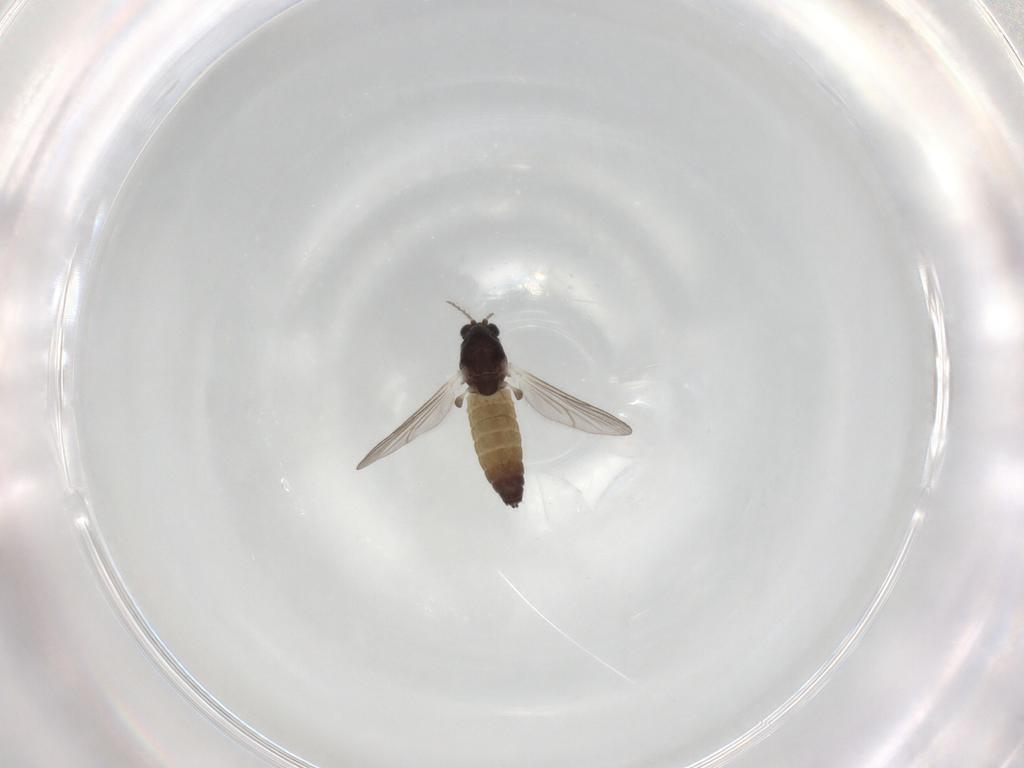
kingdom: Animalia
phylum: Arthropoda
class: Insecta
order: Diptera
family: Chironomidae
